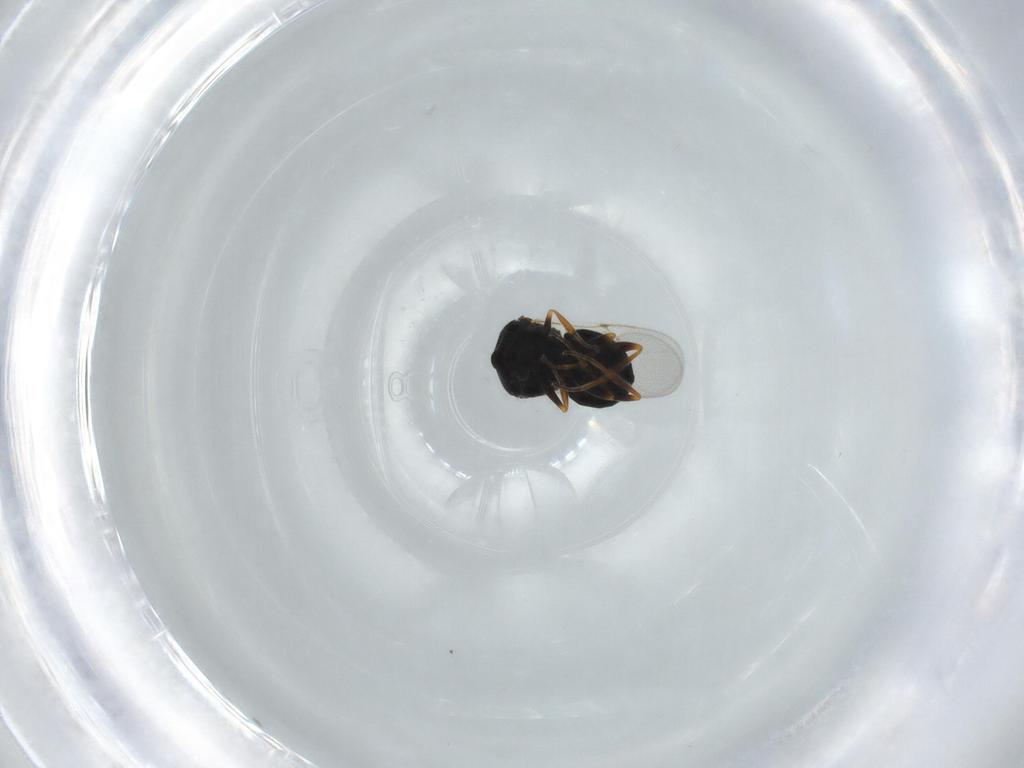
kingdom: Animalia
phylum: Arthropoda
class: Insecta
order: Hymenoptera
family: Scelionidae
